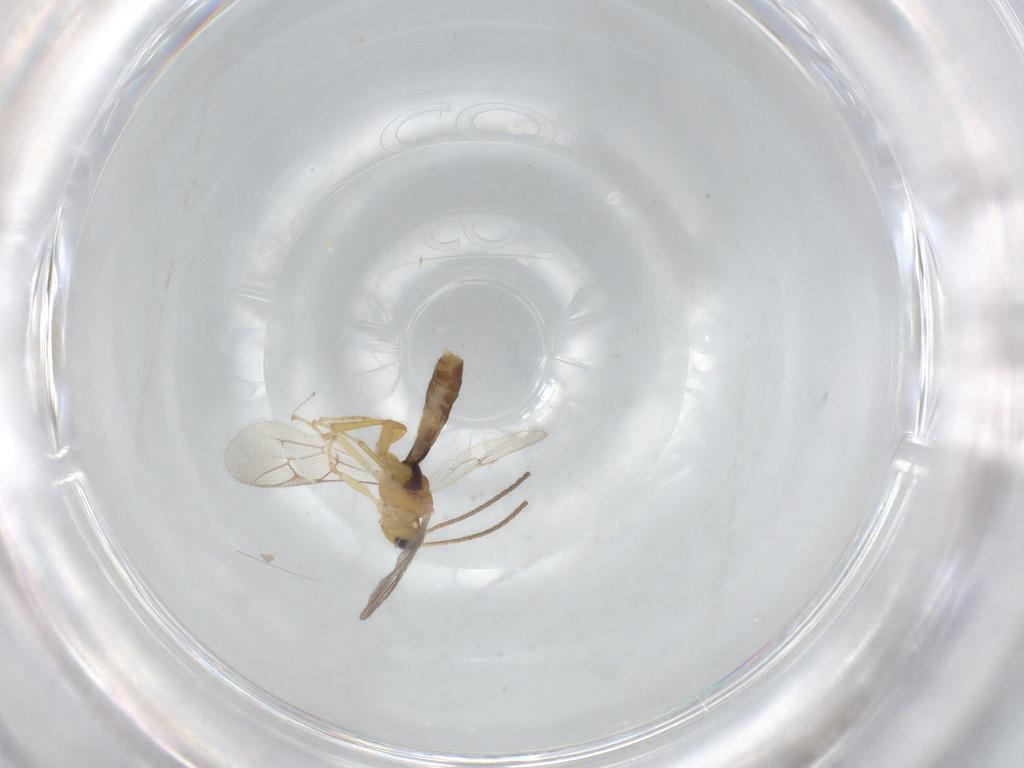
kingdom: Animalia
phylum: Arthropoda
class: Insecta
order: Hymenoptera
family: Ichneumonidae
